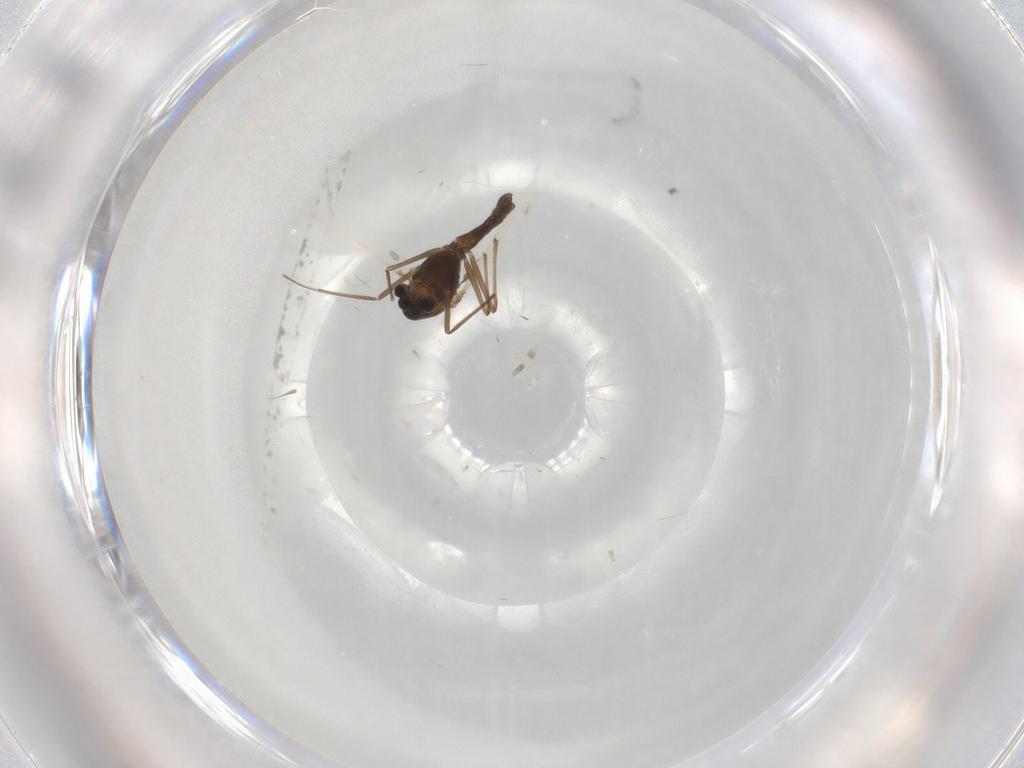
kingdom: Animalia
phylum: Arthropoda
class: Insecta
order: Diptera
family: Chironomidae
